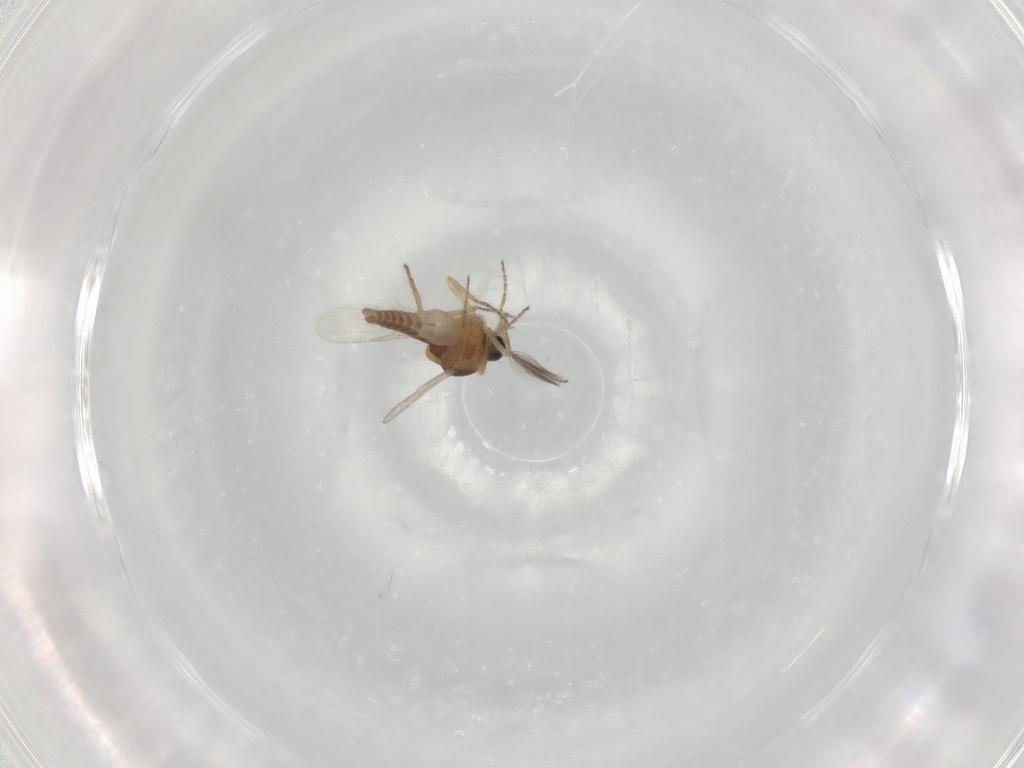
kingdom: Animalia
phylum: Arthropoda
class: Insecta
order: Diptera
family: Ceratopogonidae
